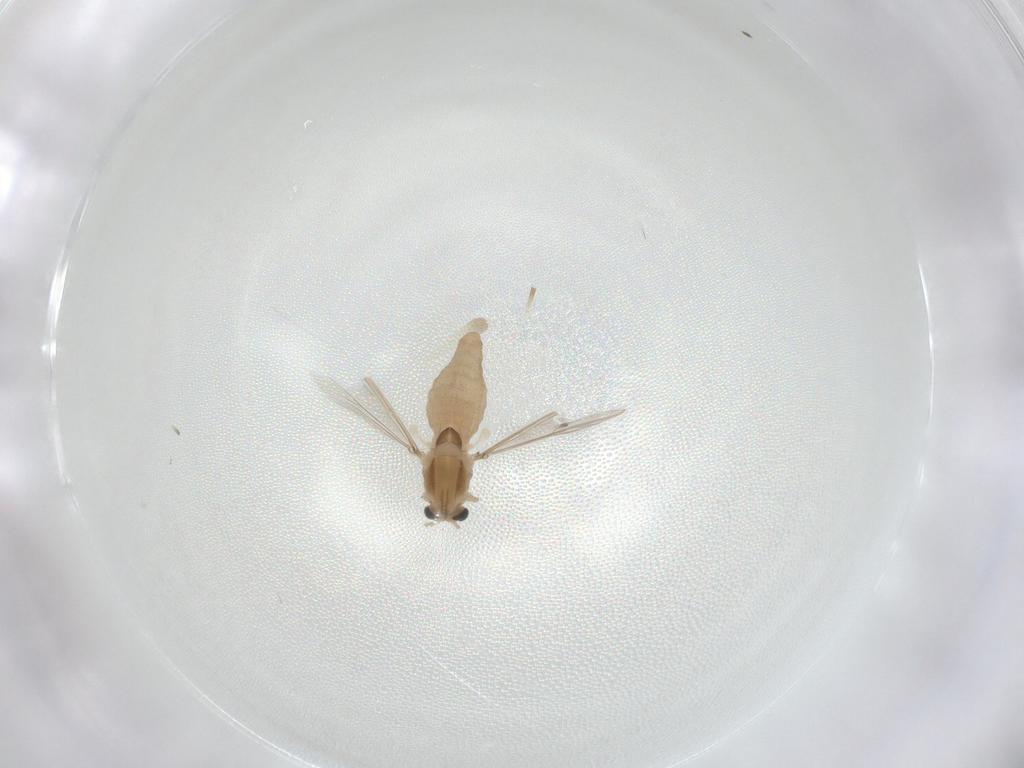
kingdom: Animalia
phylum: Arthropoda
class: Insecta
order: Diptera
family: Chironomidae
